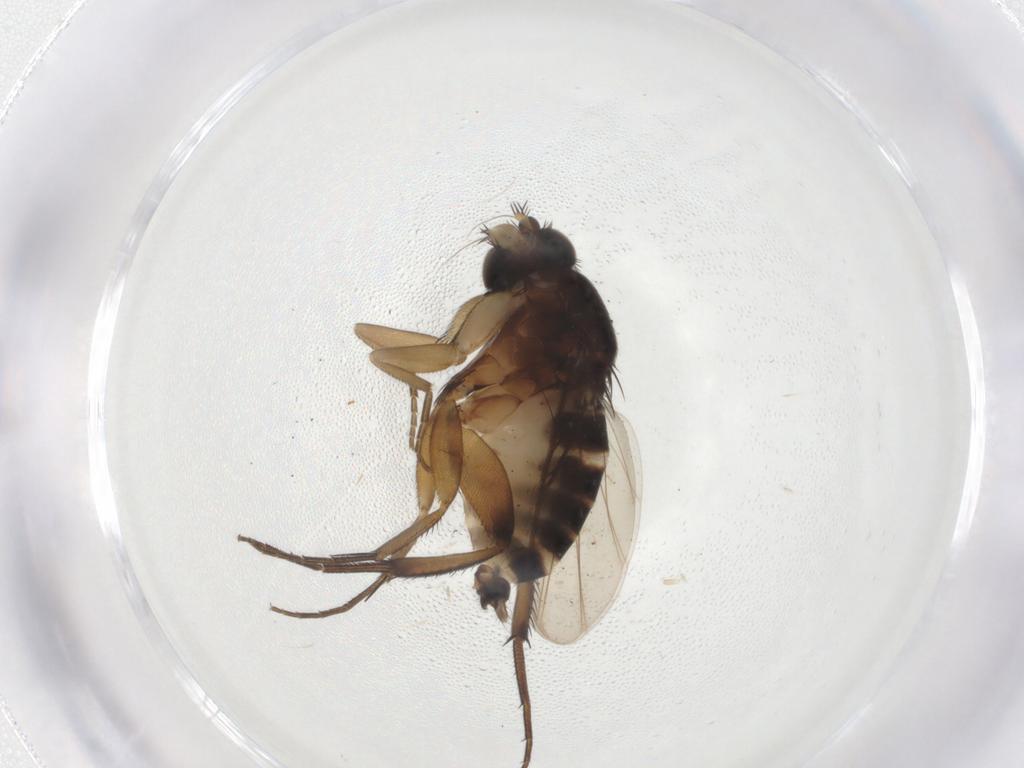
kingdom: Animalia
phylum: Arthropoda
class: Insecta
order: Diptera
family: Phoridae
